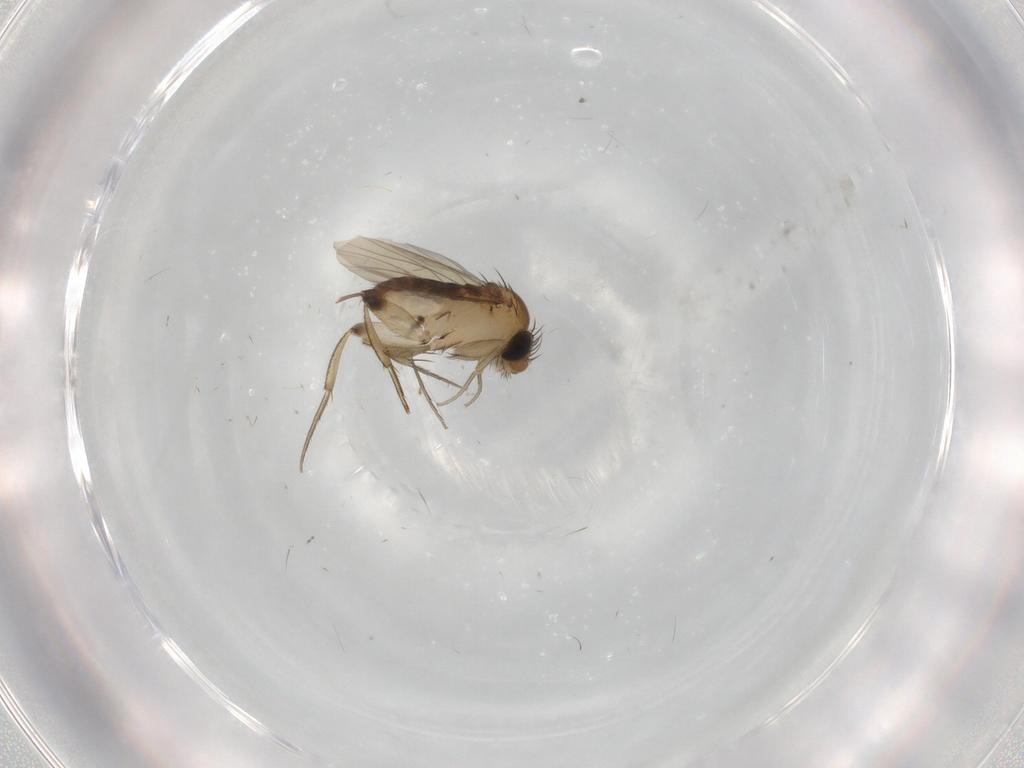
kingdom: Animalia
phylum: Arthropoda
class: Insecta
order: Diptera
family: Phoridae
